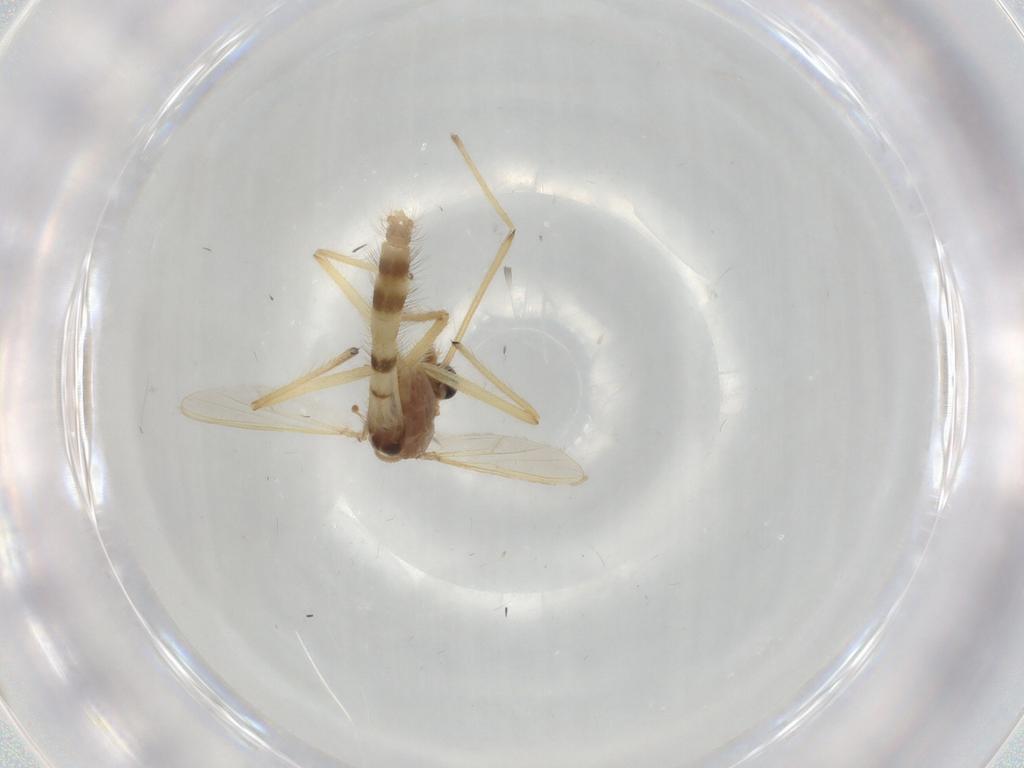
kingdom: Animalia
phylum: Arthropoda
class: Insecta
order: Diptera
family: Chironomidae
